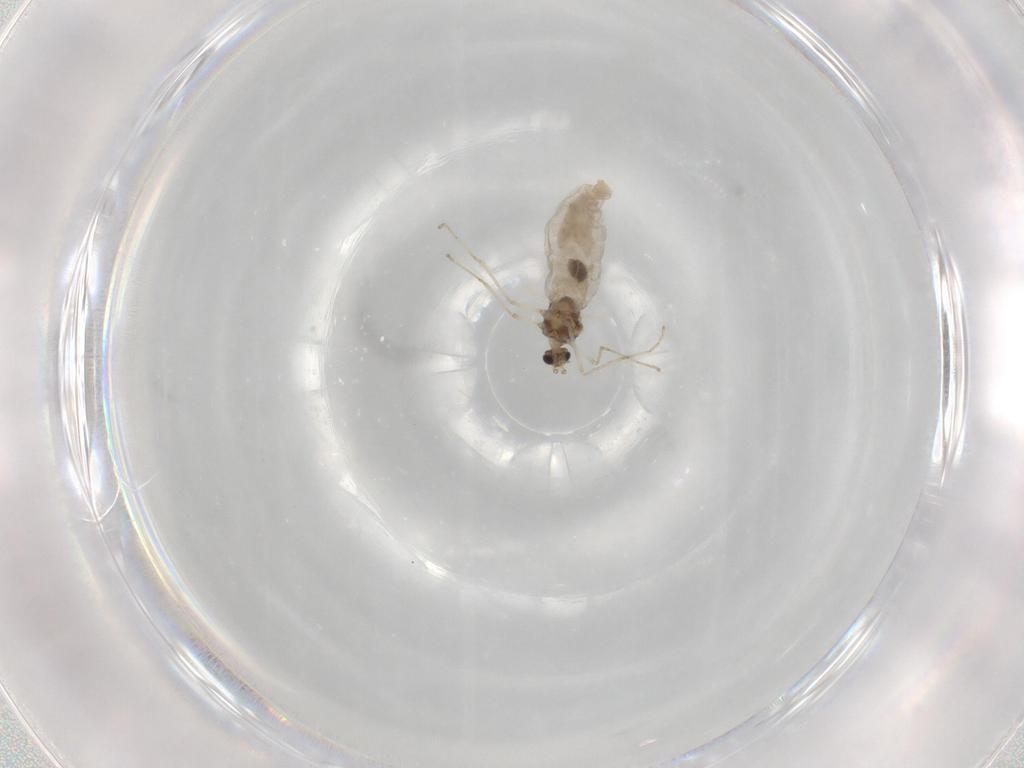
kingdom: Animalia
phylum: Arthropoda
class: Insecta
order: Diptera
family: Cecidomyiidae
